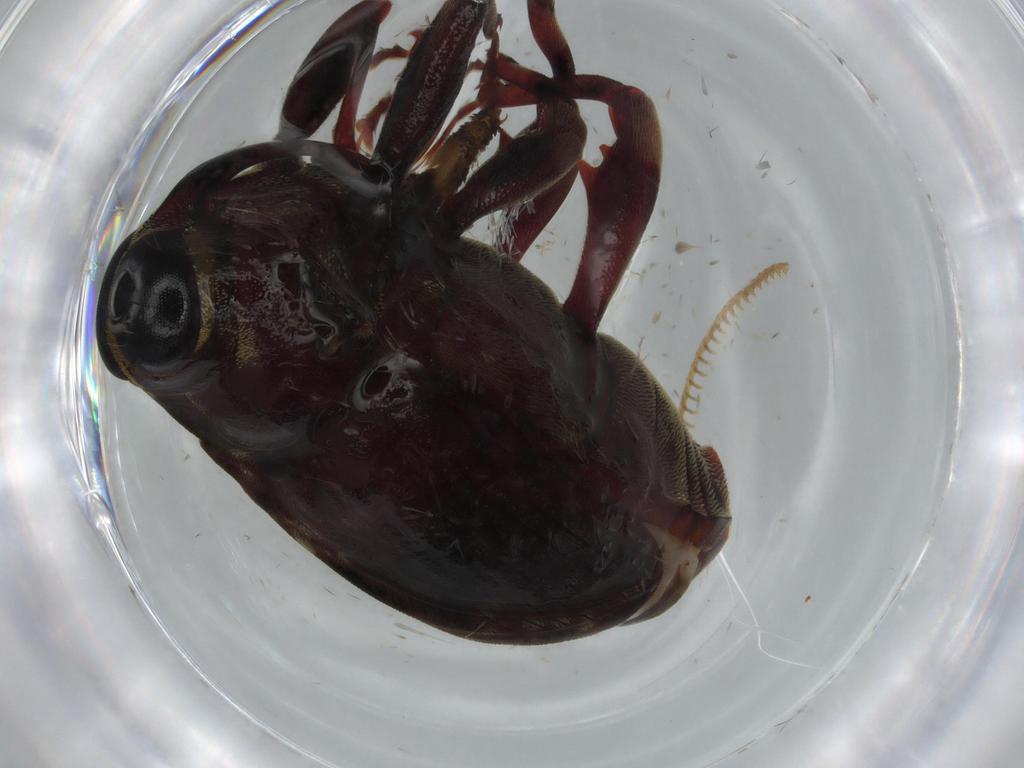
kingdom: Animalia
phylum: Arthropoda
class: Insecta
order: Coleoptera
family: Curculionidae
